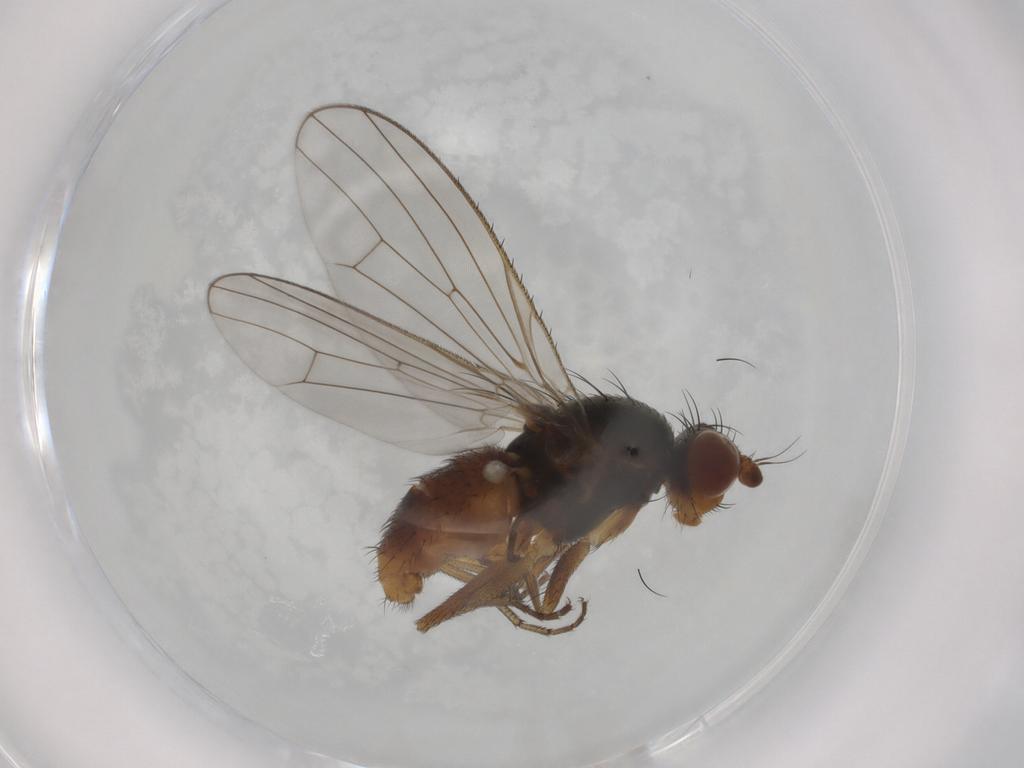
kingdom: Animalia
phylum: Arthropoda
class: Insecta
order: Diptera
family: Heleomyzidae
